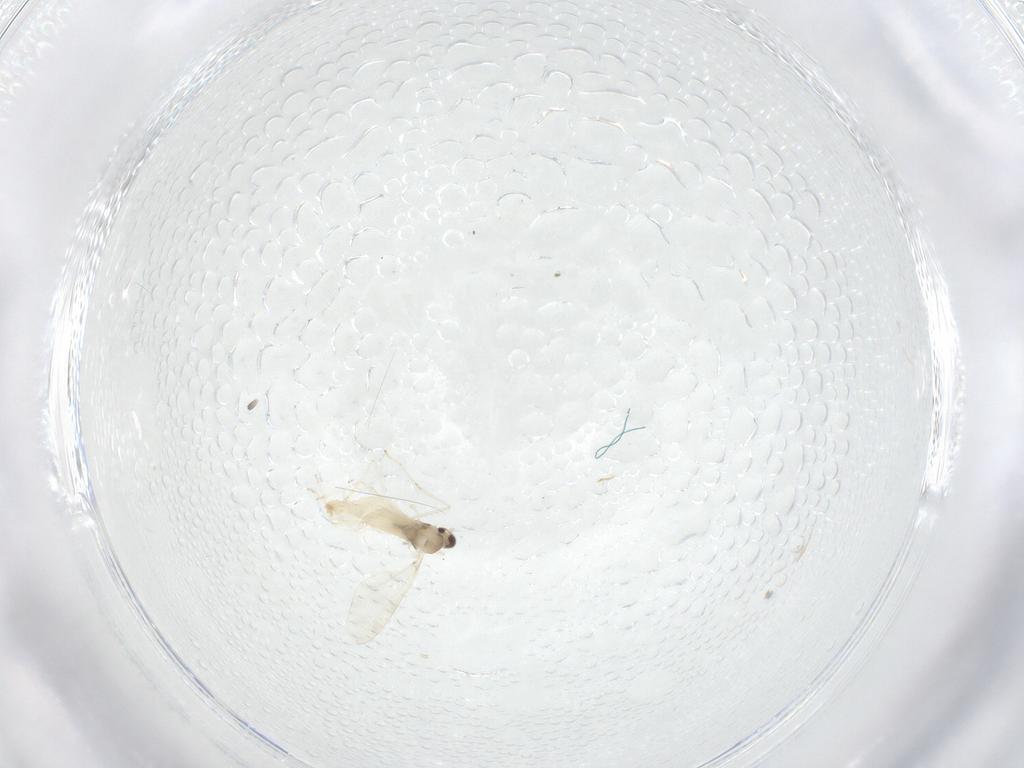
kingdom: Animalia
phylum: Arthropoda
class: Insecta
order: Diptera
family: Cecidomyiidae
